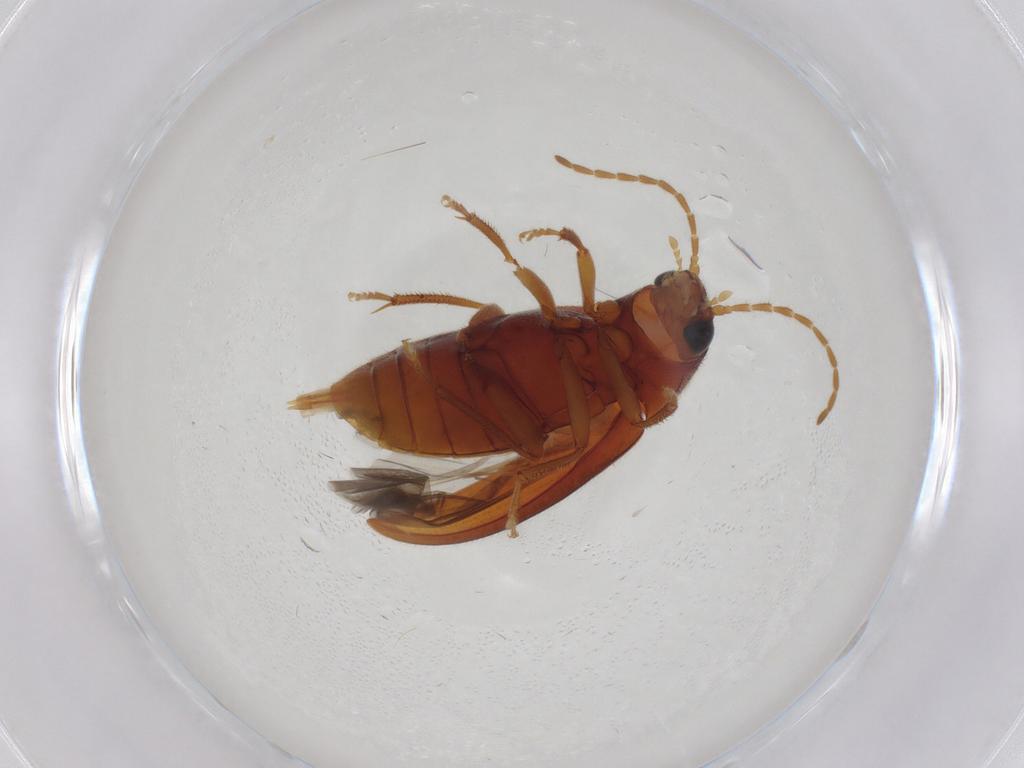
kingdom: Animalia
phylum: Arthropoda
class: Insecta
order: Coleoptera
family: Ptilodactylidae
